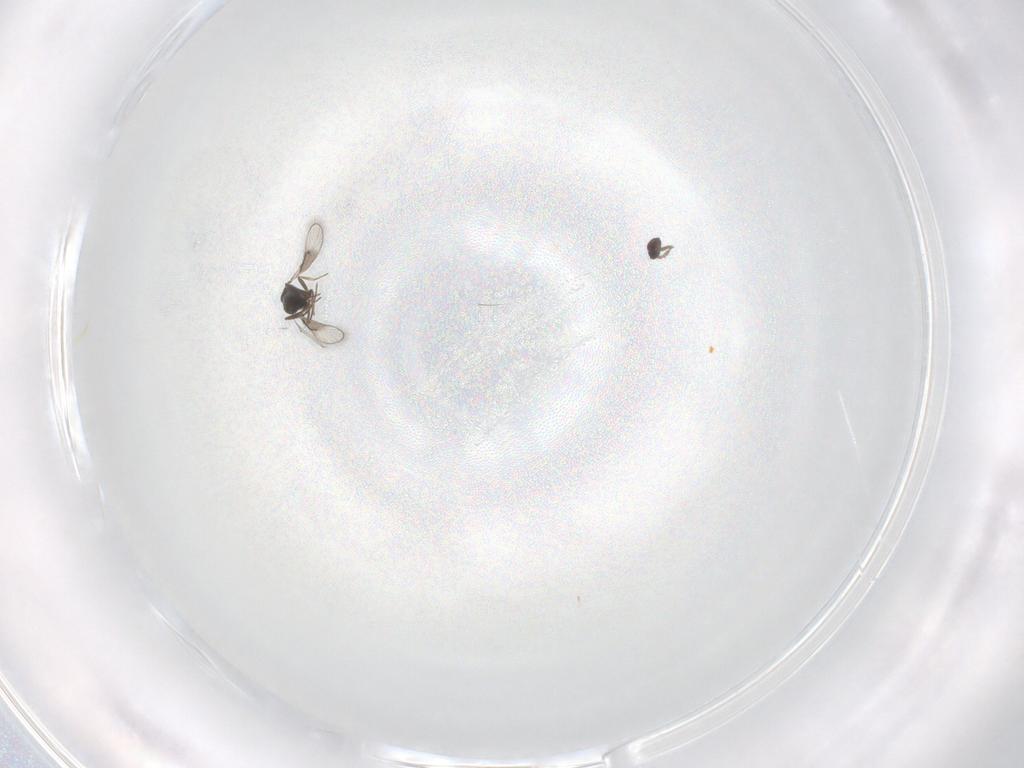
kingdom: Animalia
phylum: Arthropoda
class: Insecta
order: Hymenoptera
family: Trichogrammatidae
